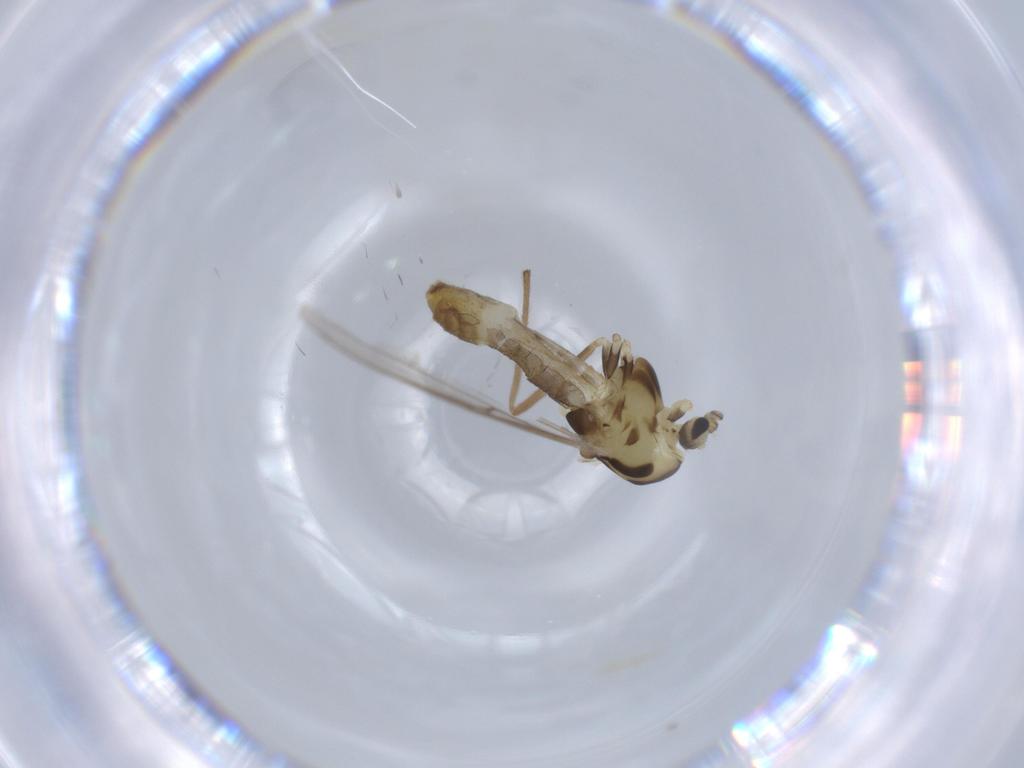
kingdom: Animalia
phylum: Arthropoda
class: Insecta
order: Diptera
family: Chironomidae
